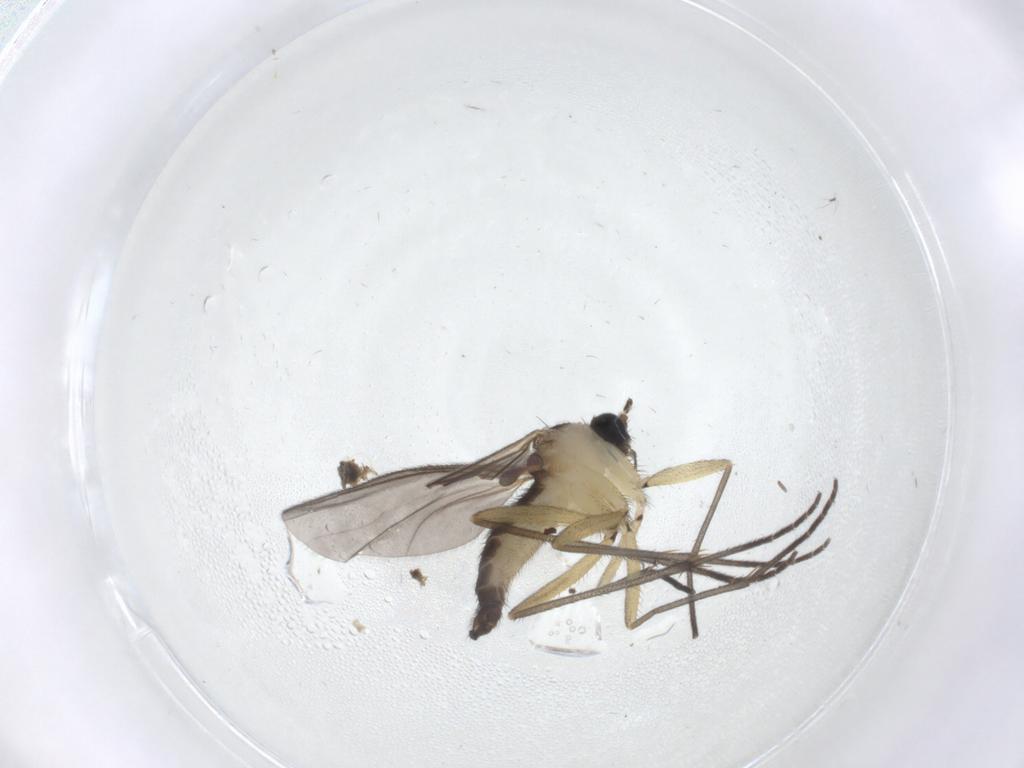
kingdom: Animalia
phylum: Arthropoda
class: Insecta
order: Diptera
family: Sciaridae
